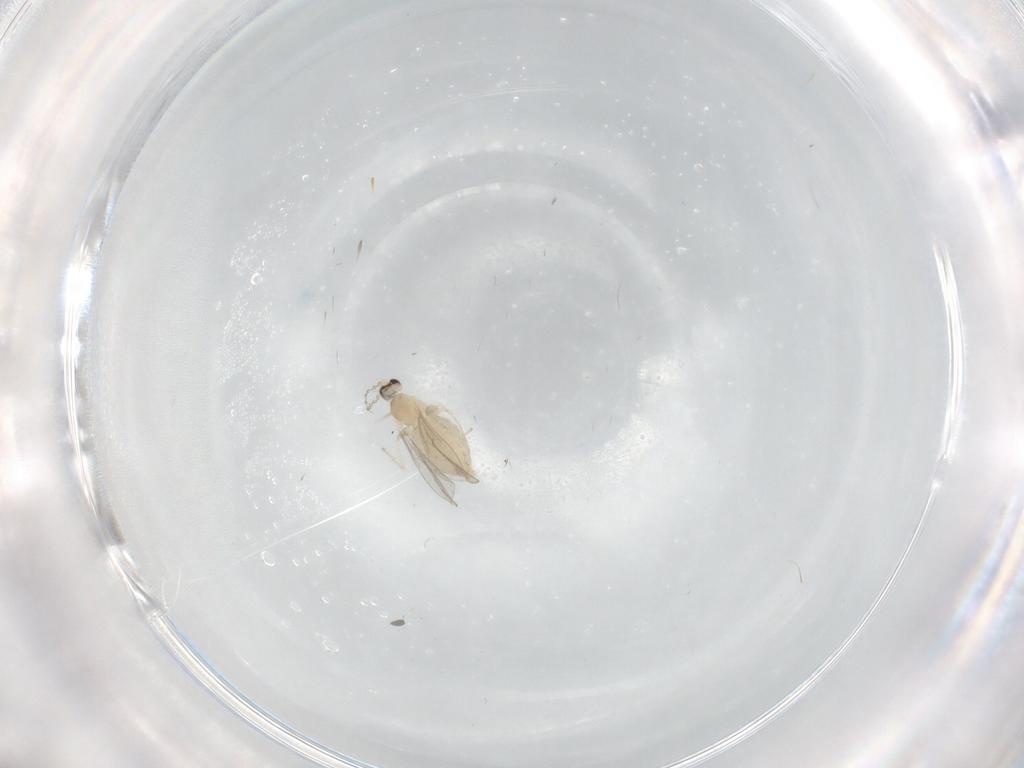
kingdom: Animalia
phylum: Arthropoda
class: Insecta
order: Diptera
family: Cecidomyiidae
